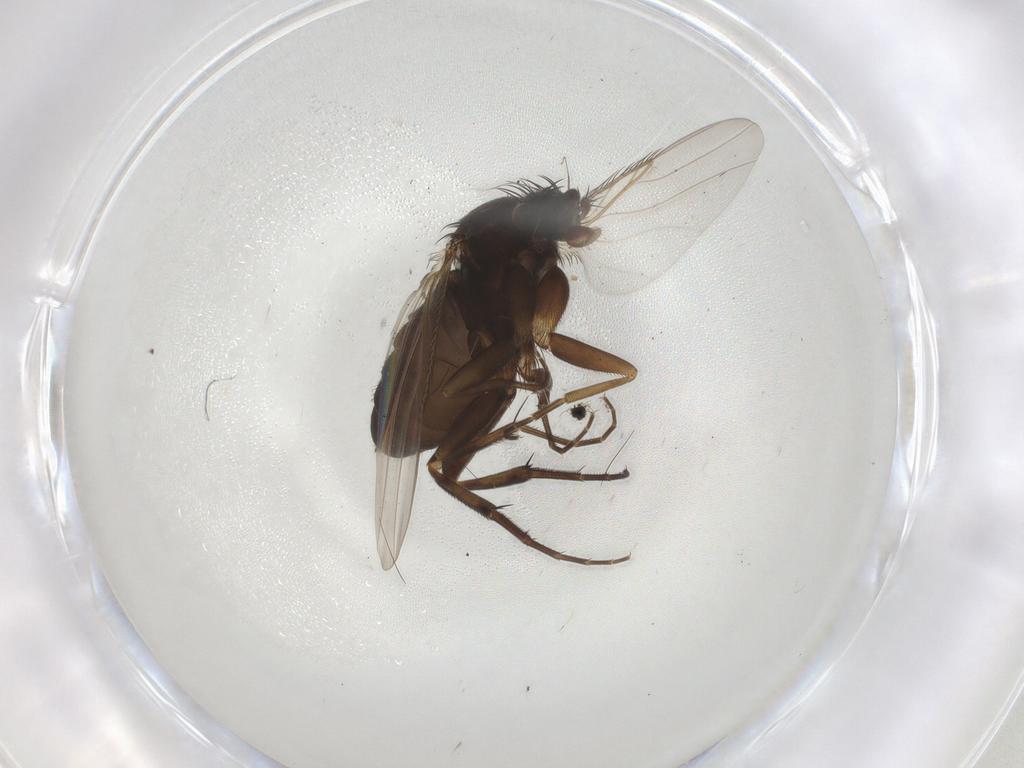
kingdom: Animalia
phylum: Arthropoda
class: Insecta
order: Diptera
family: Phoridae
